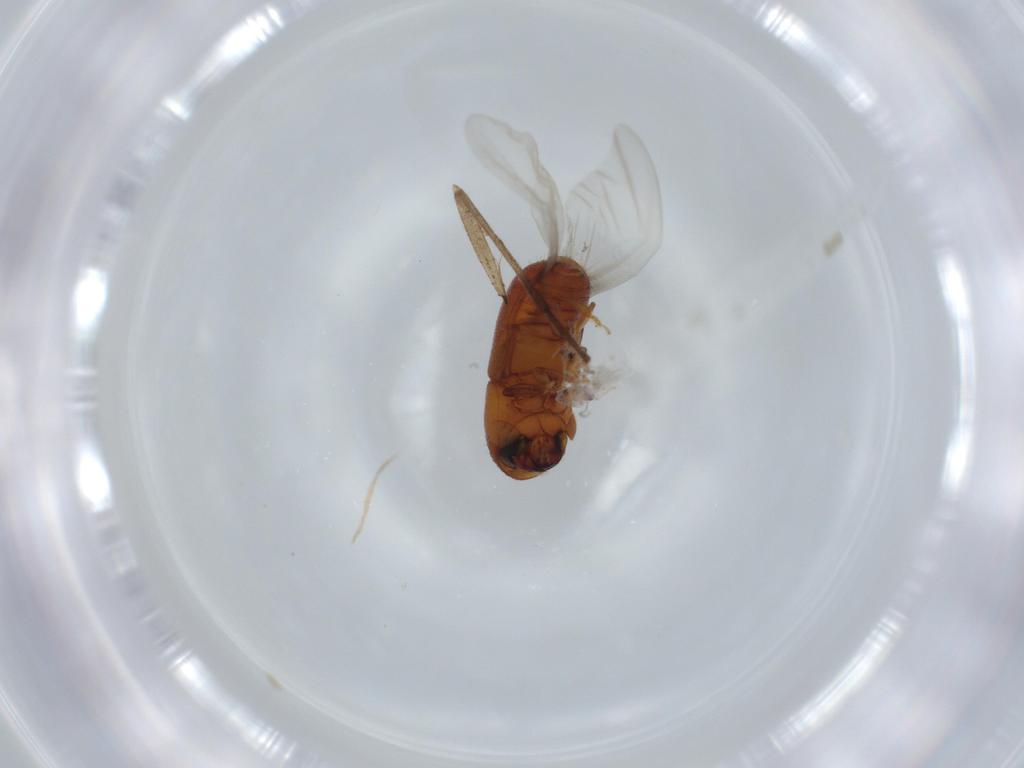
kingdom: Animalia
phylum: Arthropoda
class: Insecta
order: Coleoptera
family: Curculionidae
